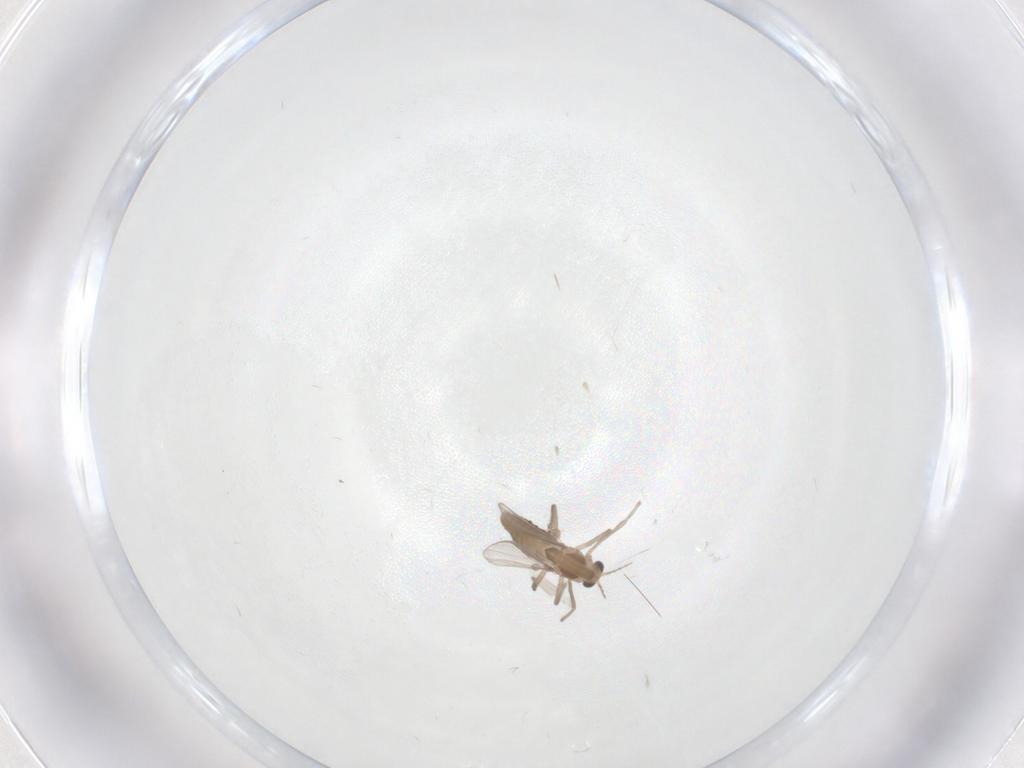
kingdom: Animalia
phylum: Arthropoda
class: Insecta
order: Diptera
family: Chironomidae
